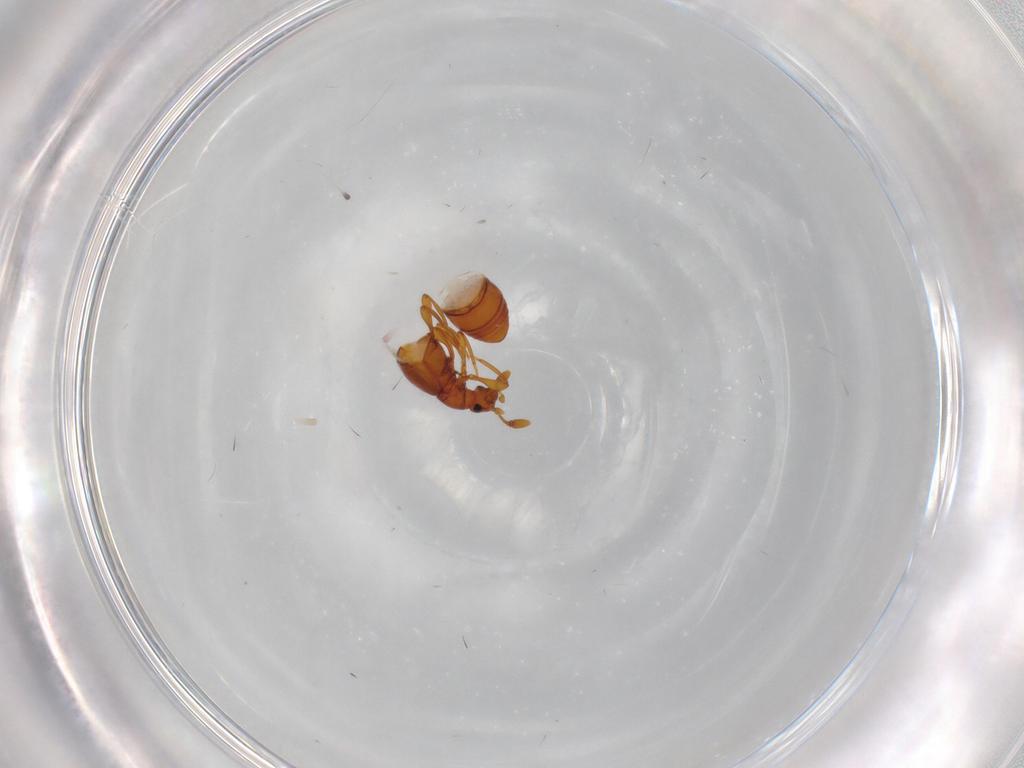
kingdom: Animalia
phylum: Arthropoda
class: Insecta
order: Coleoptera
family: Staphylinidae
